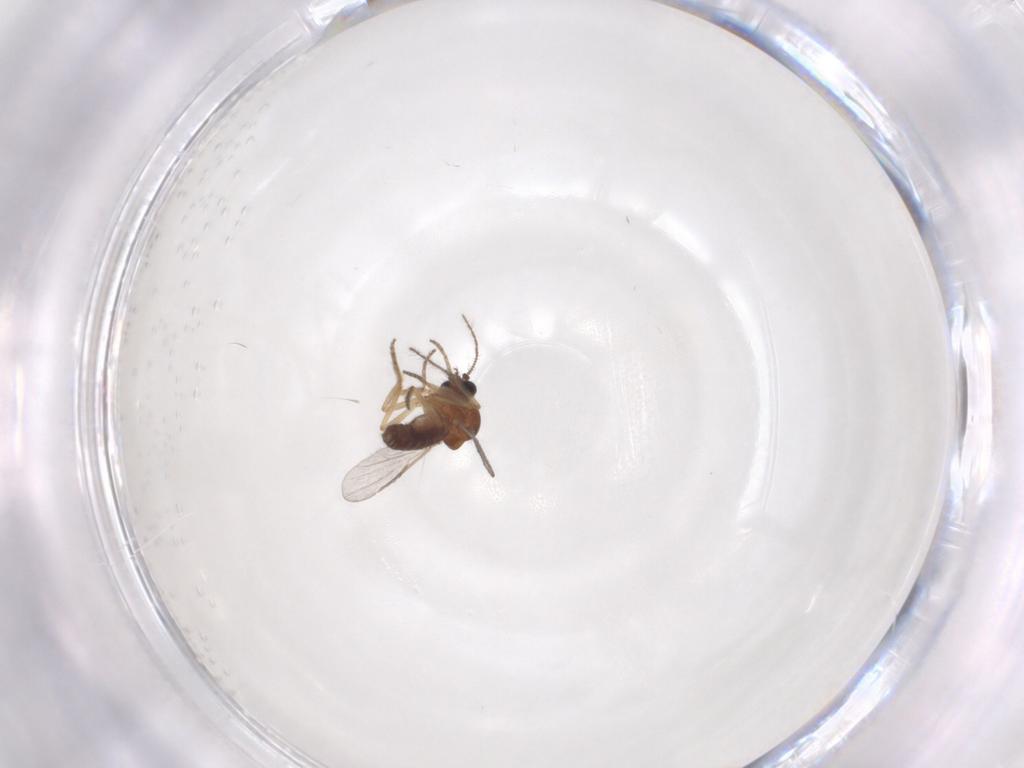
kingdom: Animalia
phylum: Arthropoda
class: Insecta
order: Diptera
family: Ceratopogonidae
